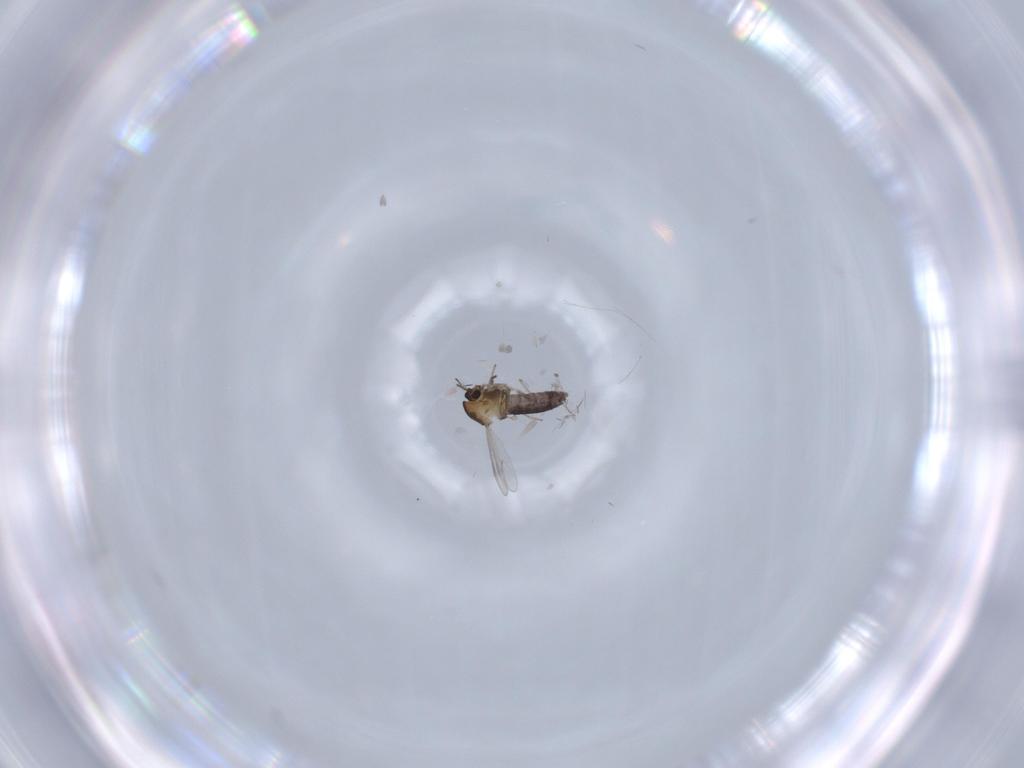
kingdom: Animalia
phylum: Arthropoda
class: Insecta
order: Diptera
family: Chironomidae
